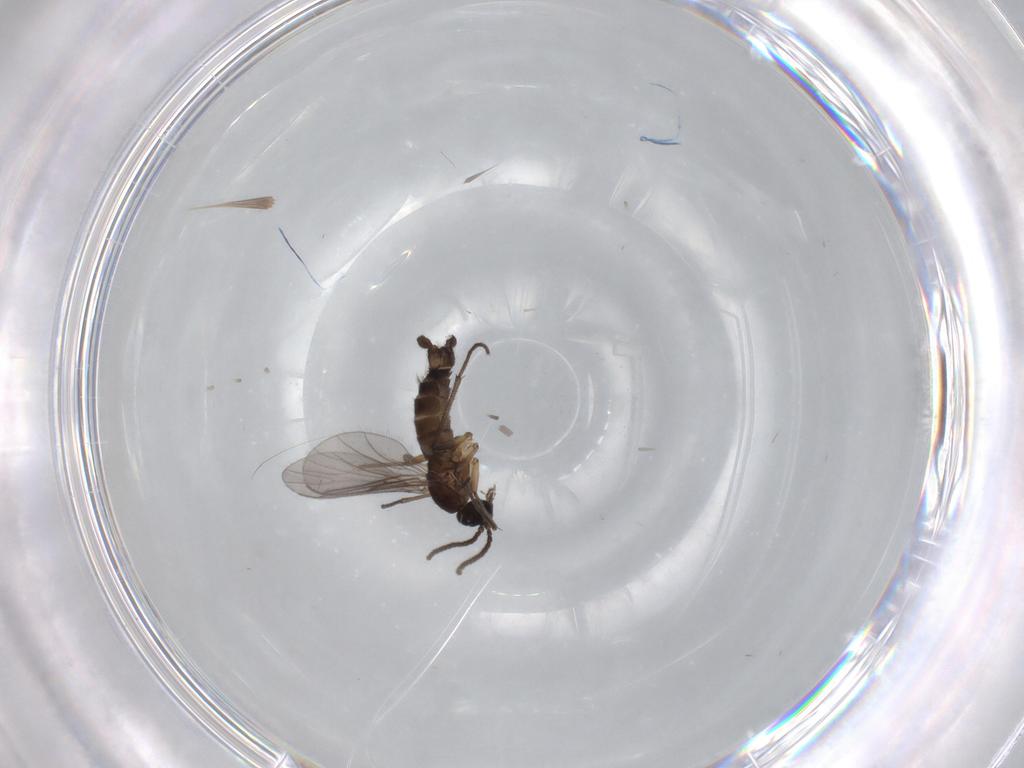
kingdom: Animalia
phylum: Arthropoda
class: Insecta
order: Diptera
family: Sciaridae
